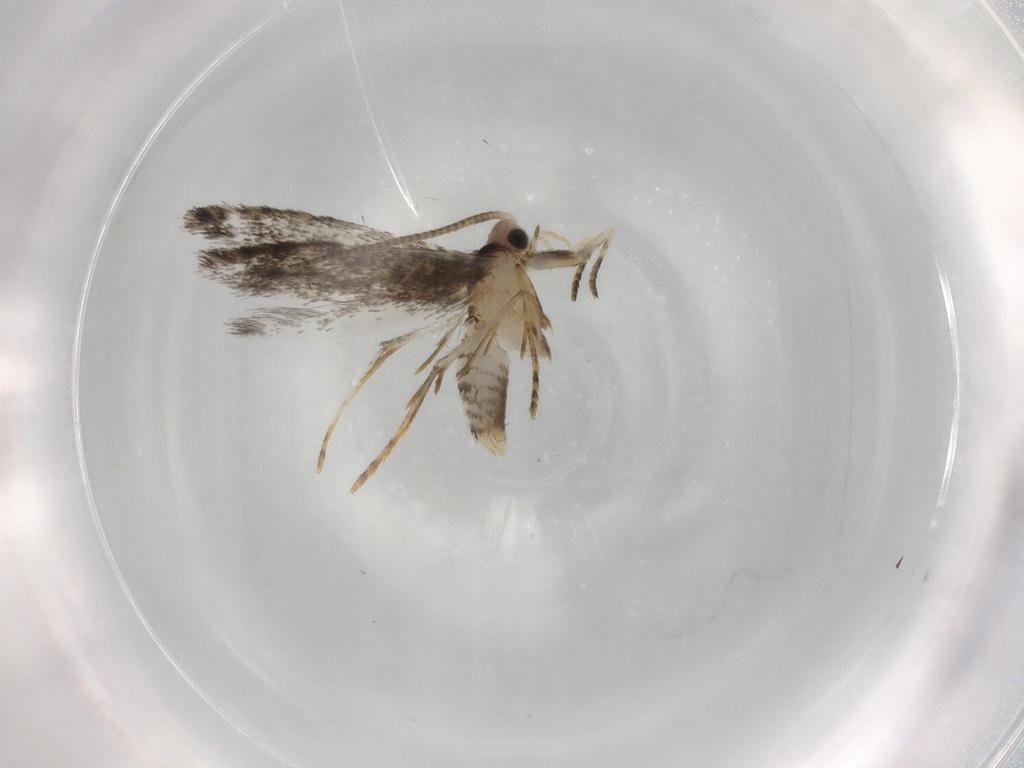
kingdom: Animalia
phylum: Arthropoda
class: Insecta
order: Lepidoptera
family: Tineidae
